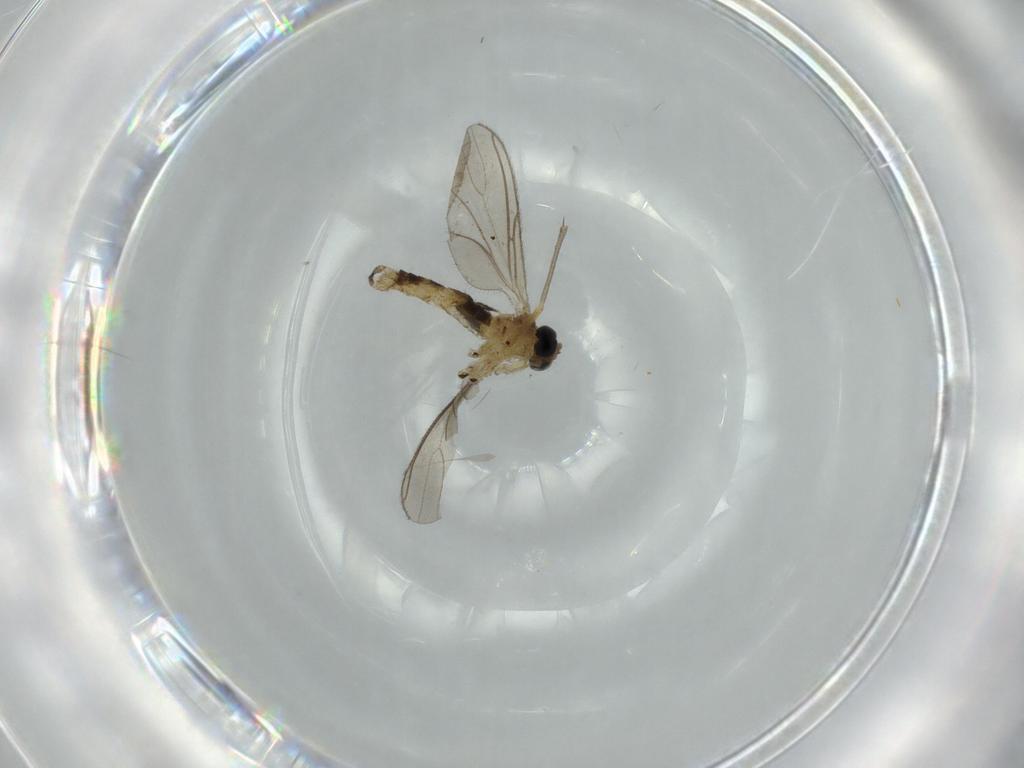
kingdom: Animalia
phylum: Arthropoda
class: Insecta
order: Diptera
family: Sciaridae
